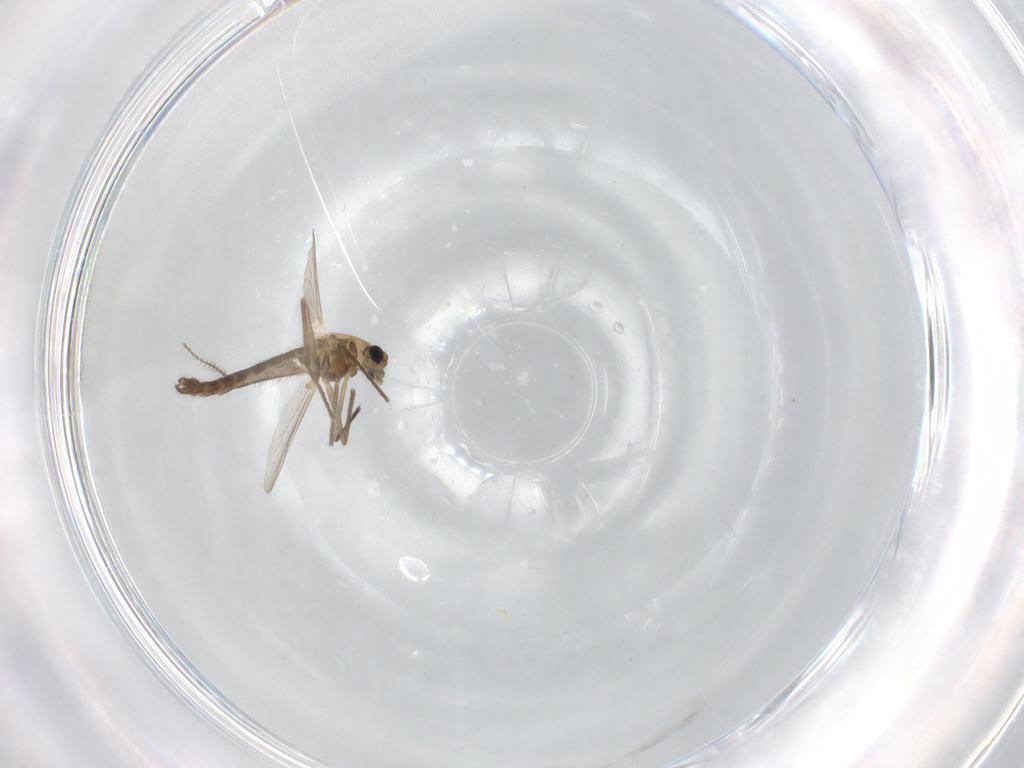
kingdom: Animalia
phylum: Arthropoda
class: Insecta
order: Diptera
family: Chironomidae
